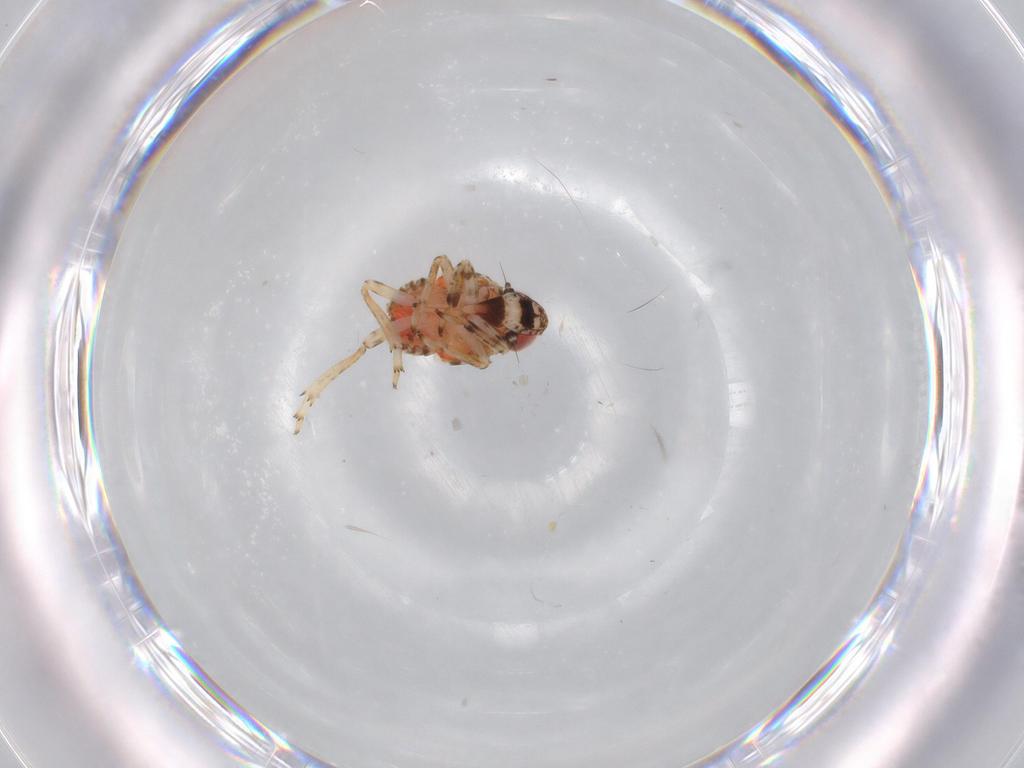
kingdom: Animalia
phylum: Arthropoda
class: Insecta
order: Hemiptera
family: Issidae
